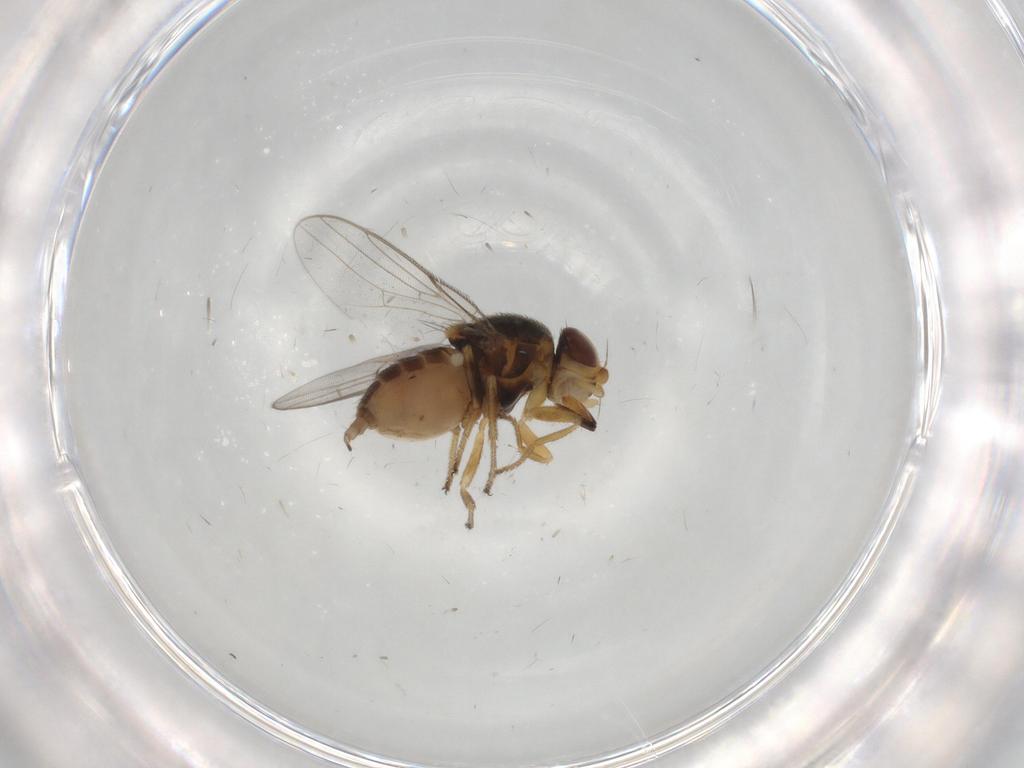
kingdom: Animalia
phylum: Arthropoda
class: Insecta
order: Diptera
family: Chloropidae
